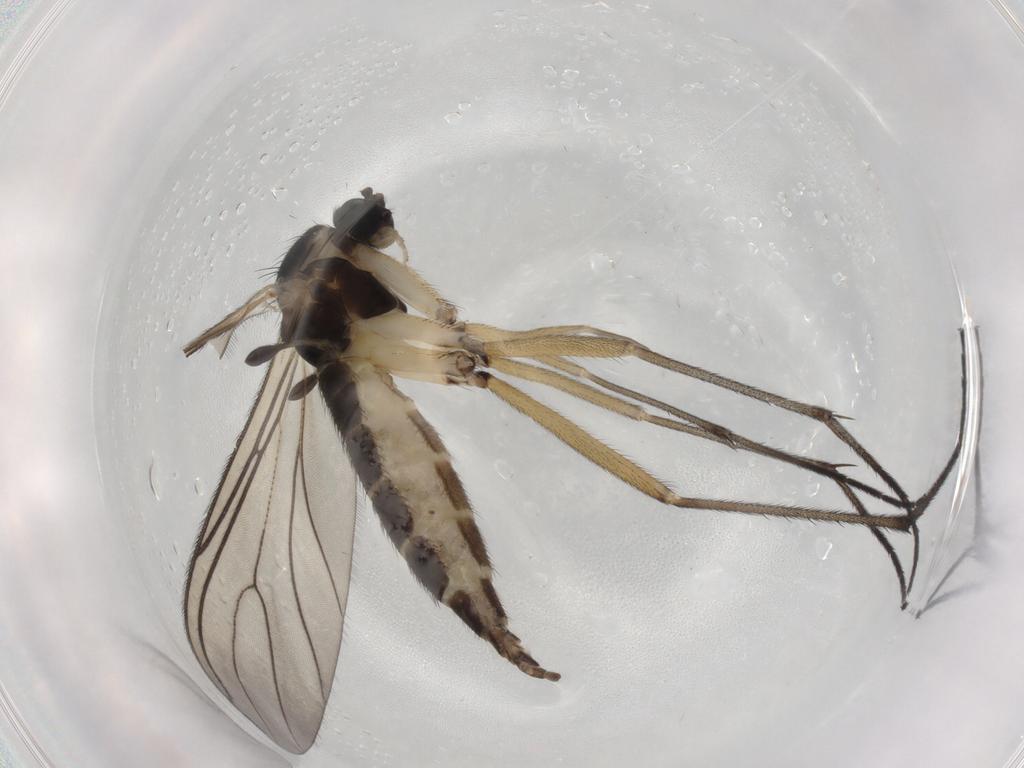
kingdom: Animalia
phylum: Arthropoda
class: Insecta
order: Diptera
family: Sciaridae
